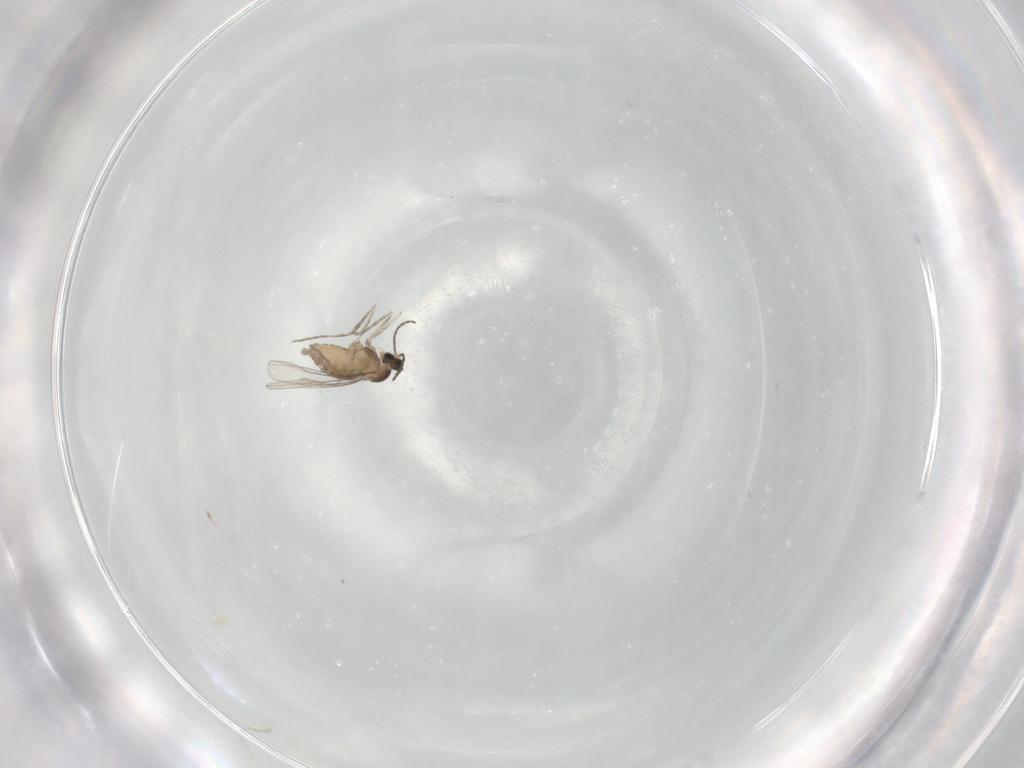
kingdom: Animalia
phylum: Arthropoda
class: Insecta
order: Diptera
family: Cecidomyiidae
